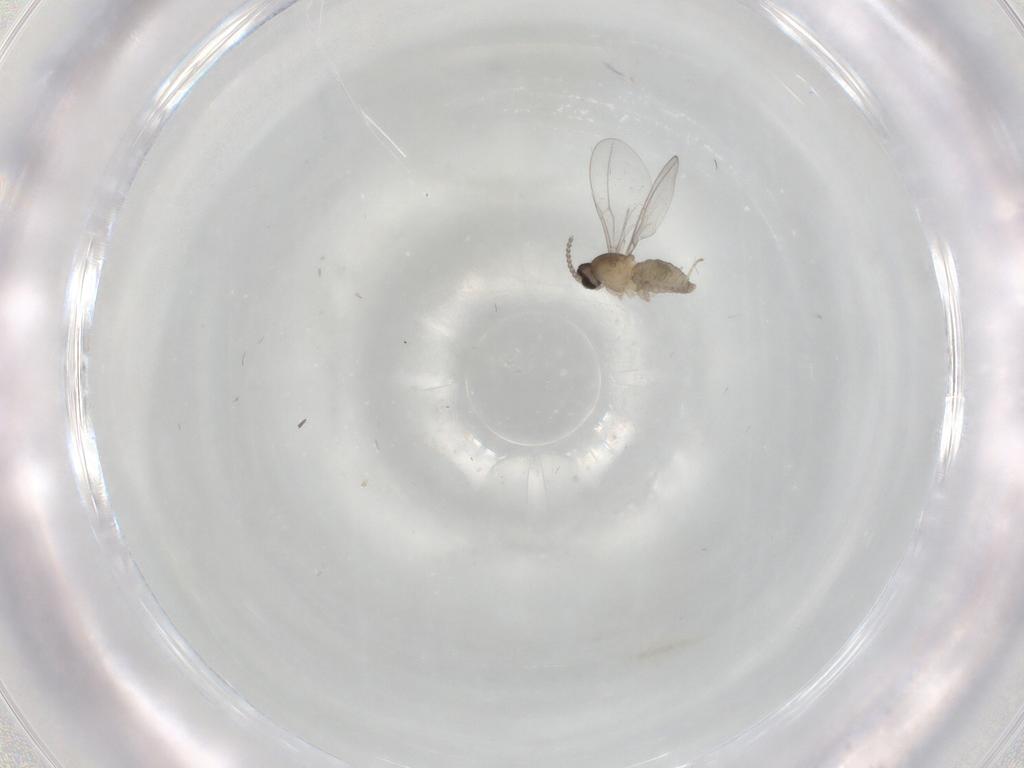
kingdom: Animalia
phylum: Arthropoda
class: Insecta
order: Diptera
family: Cecidomyiidae
